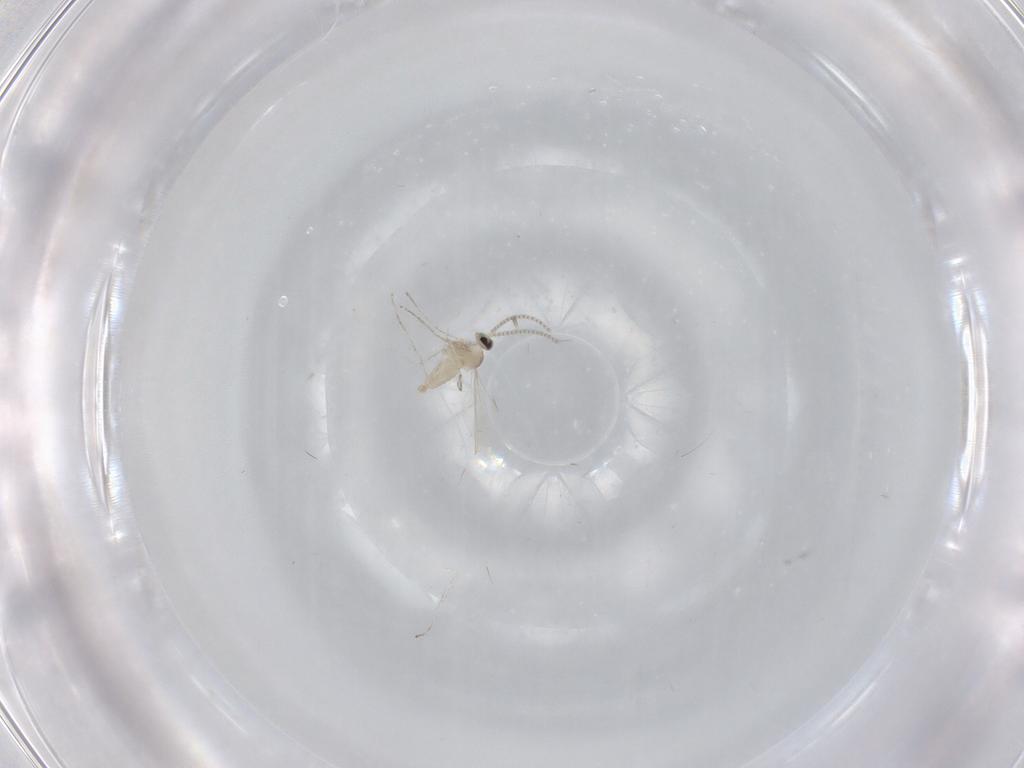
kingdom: Animalia
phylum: Arthropoda
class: Insecta
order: Diptera
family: Cecidomyiidae
